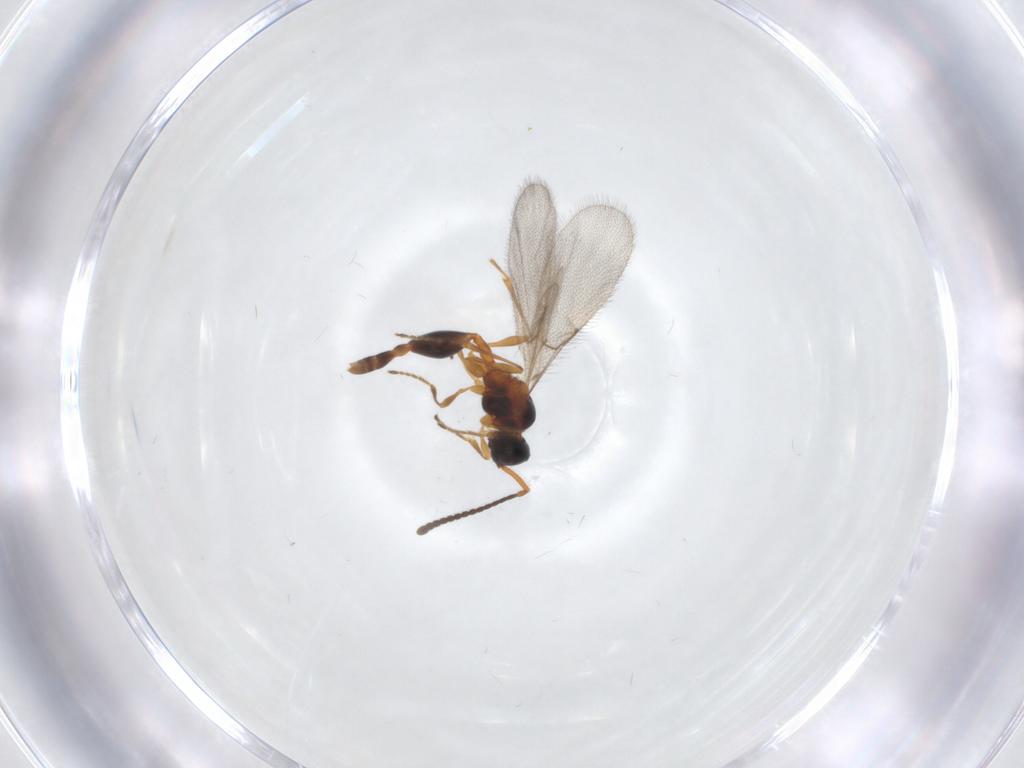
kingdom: Animalia
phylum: Arthropoda
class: Insecta
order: Hymenoptera
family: Diapriidae
